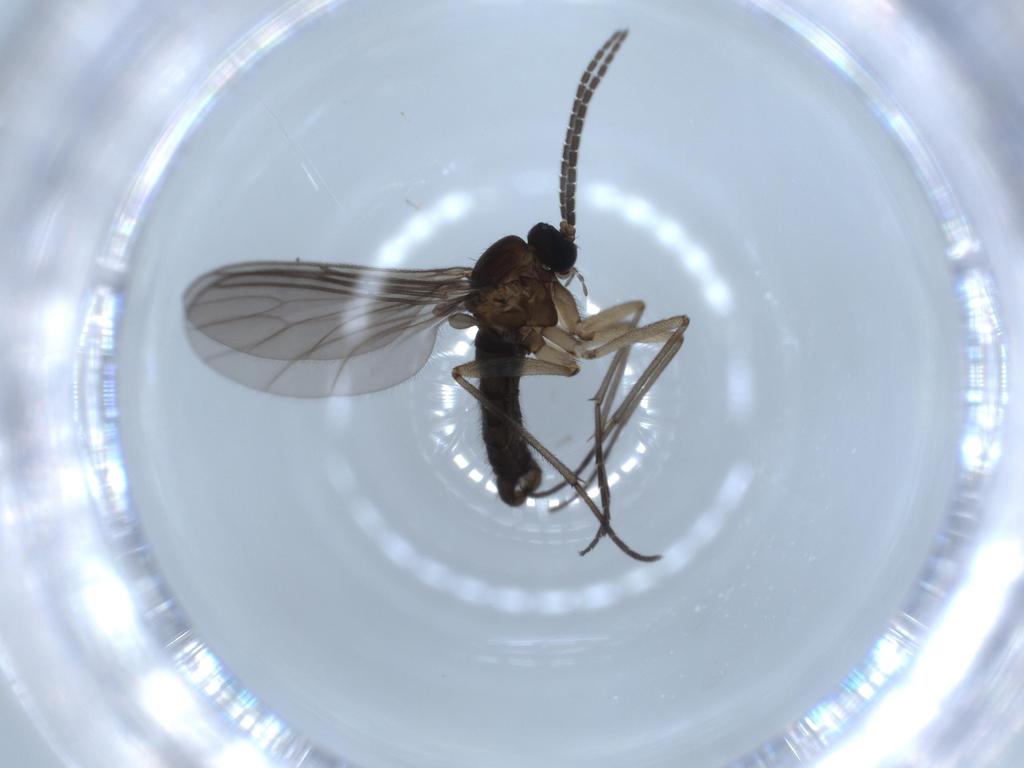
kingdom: Animalia
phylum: Arthropoda
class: Insecta
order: Diptera
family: Sciaridae
